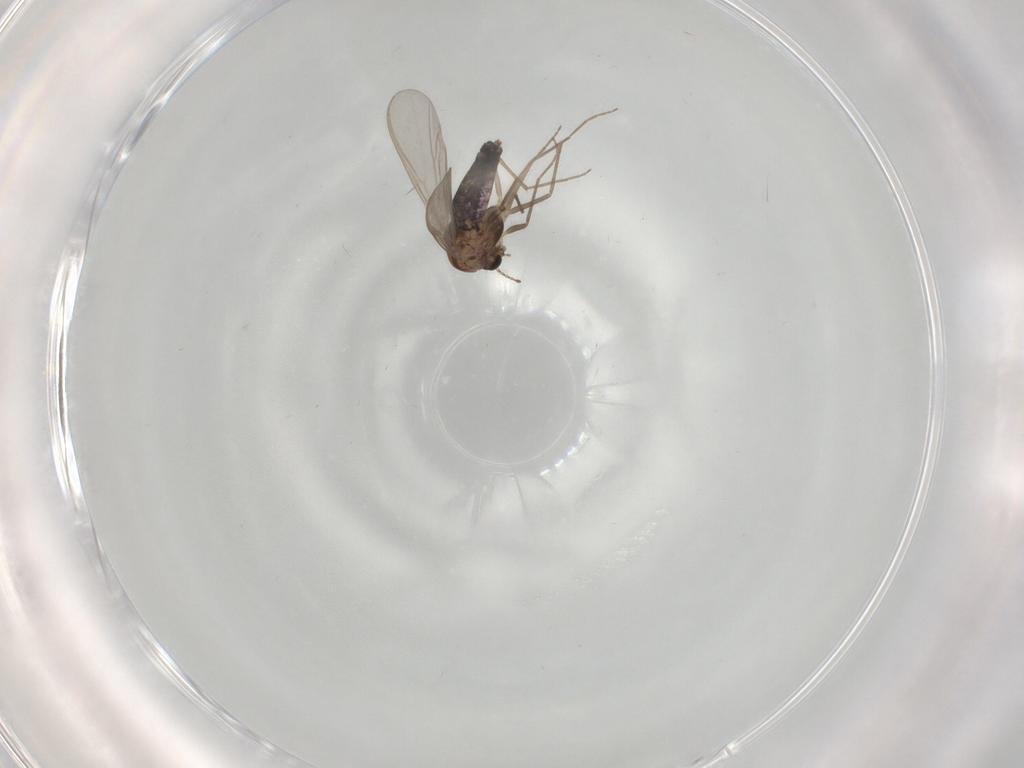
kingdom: Animalia
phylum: Arthropoda
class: Insecta
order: Diptera
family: Chironomidae
